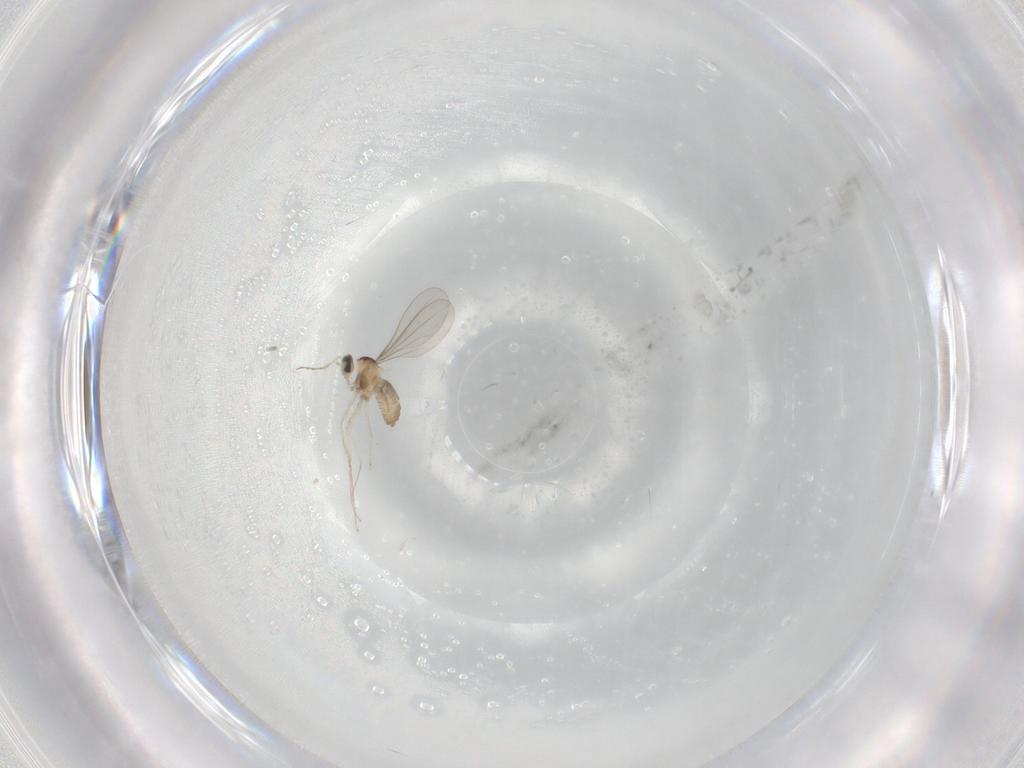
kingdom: Animalia
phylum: Arthropoda
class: Insecta
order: Diptera
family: Cecidomyiidae
